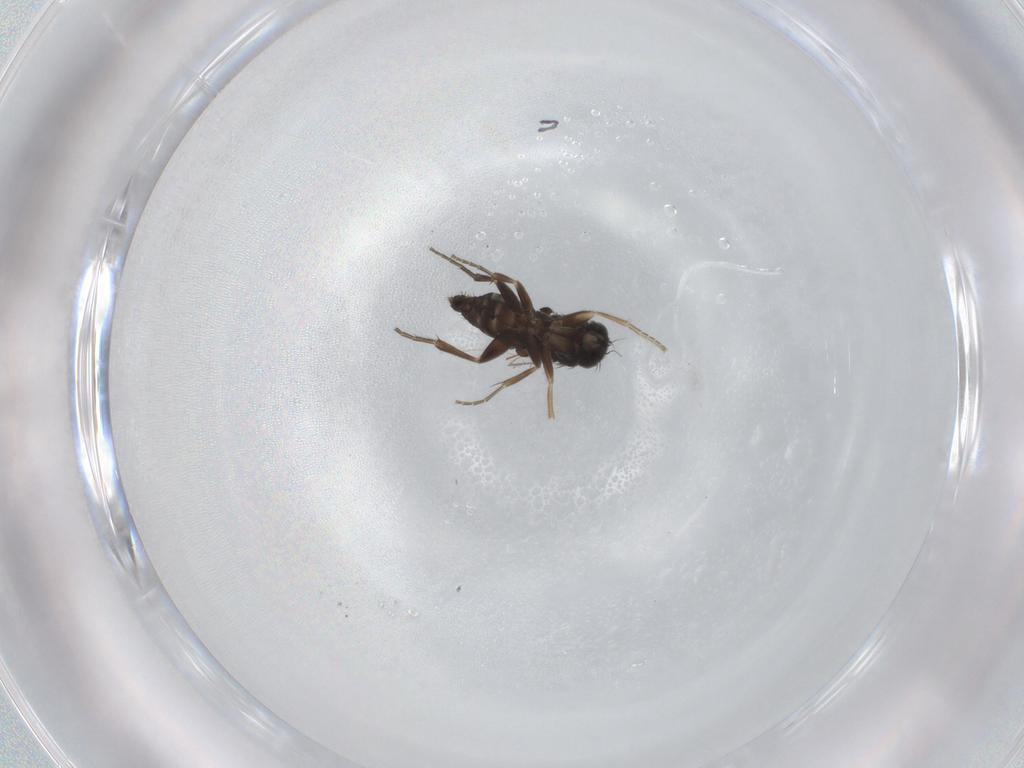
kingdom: Animalia
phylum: Arthropoda
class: Insecta
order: Diptera
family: Phoridae
